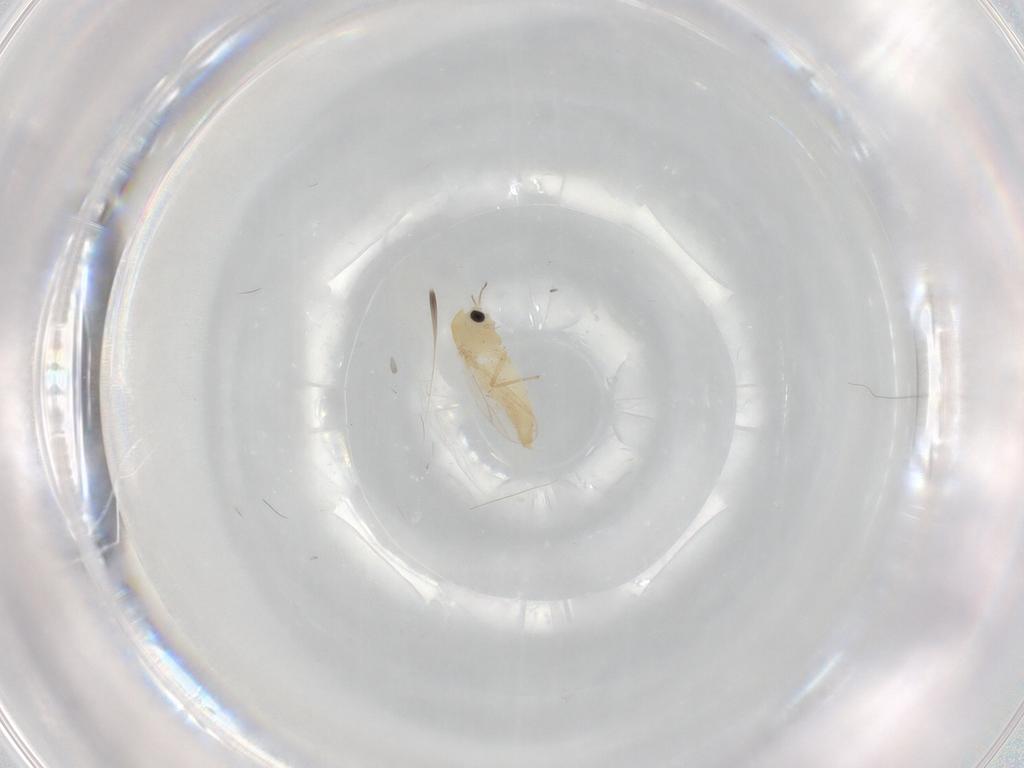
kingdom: Animalia
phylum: Arthropoda
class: Insecta
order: Diptera
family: Chironomidae
